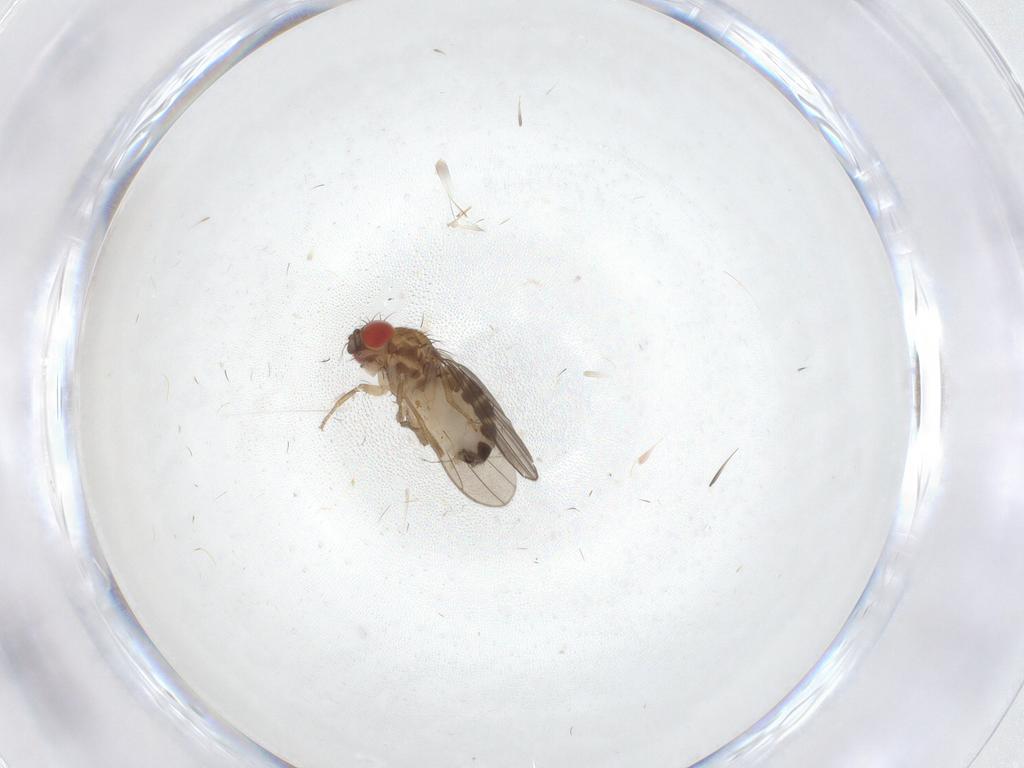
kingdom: Animalia
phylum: Arthropoda
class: Insecta
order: Diptera
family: Drosophilidae
